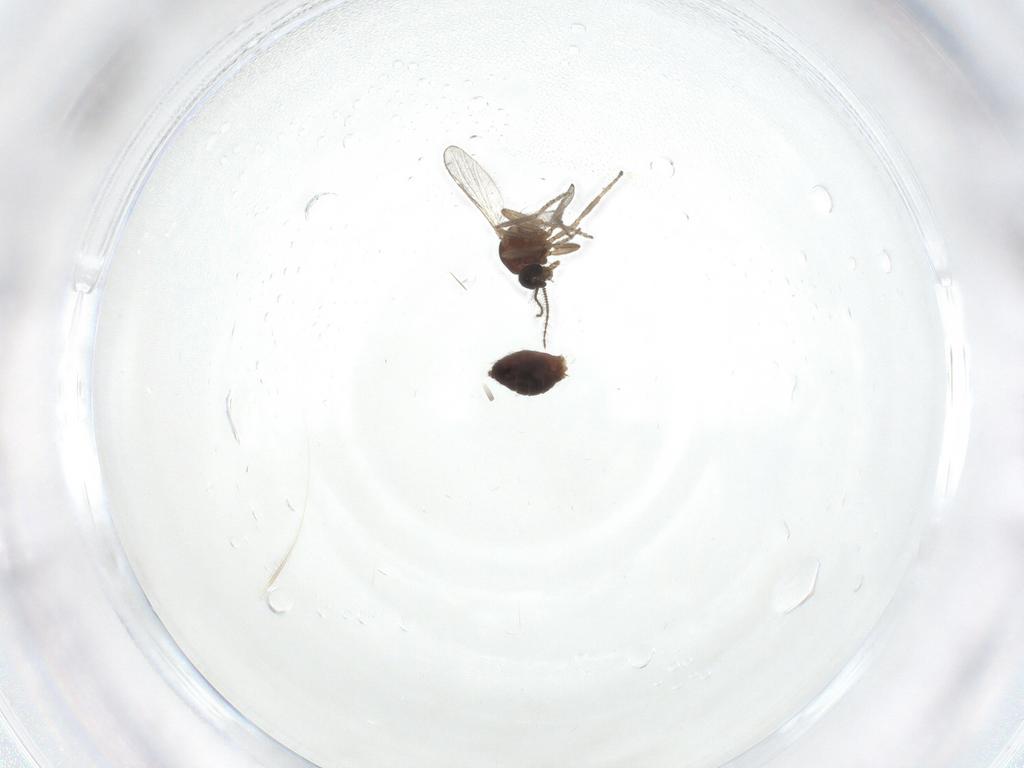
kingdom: Animalia
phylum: Arthropoda
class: Insecta
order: Diptera
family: Ceratopogonidae
